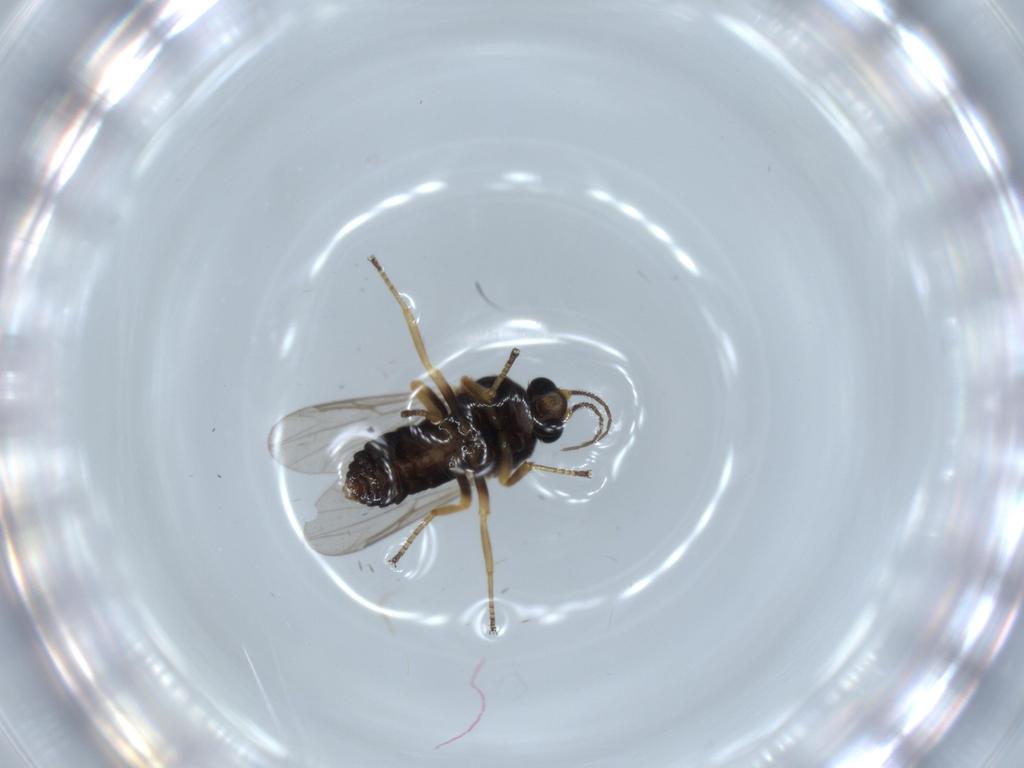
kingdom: Animalia
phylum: Arthropoda
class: Insecta
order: Diptera
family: Ceratopogonidae
